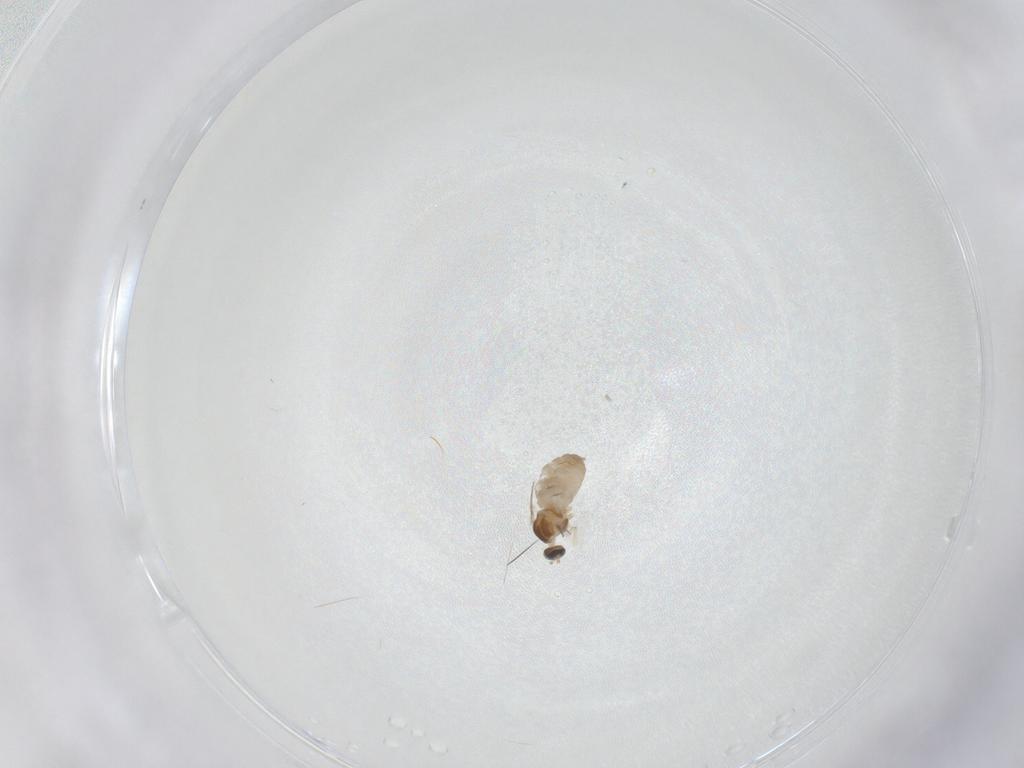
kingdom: Animalia
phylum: Arthropoda
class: Insecta
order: Diptera
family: Cecidomyiidae
